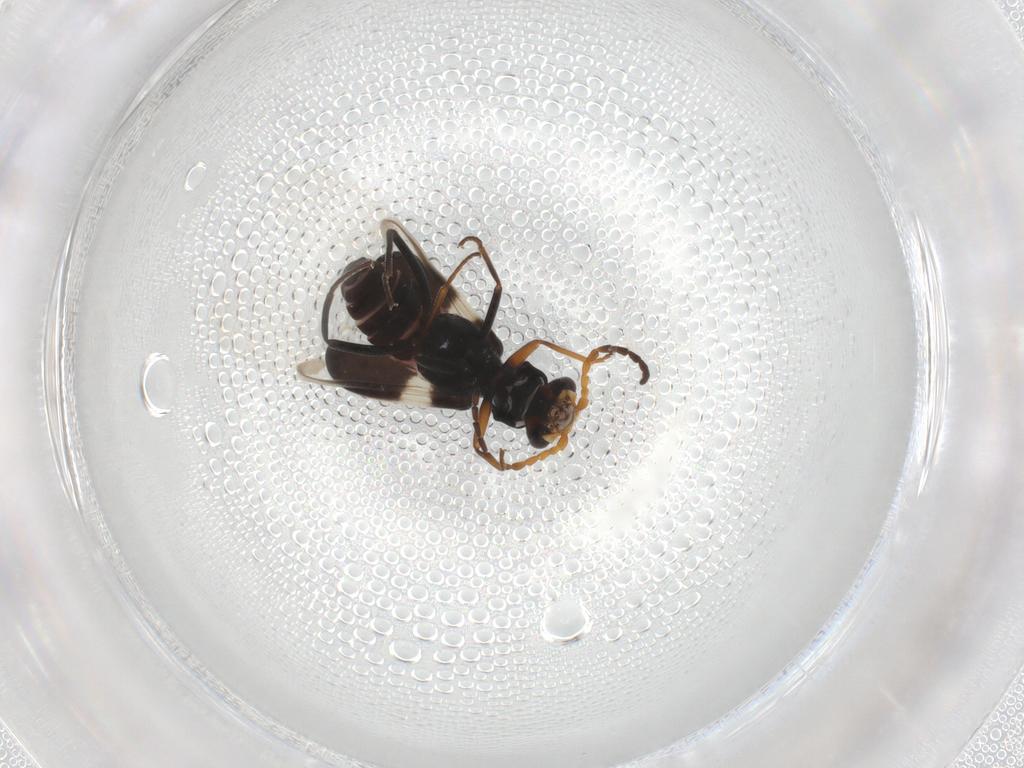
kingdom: Animalia
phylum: Arthropoda
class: Insecta
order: Coleoptera
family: Melyridae
